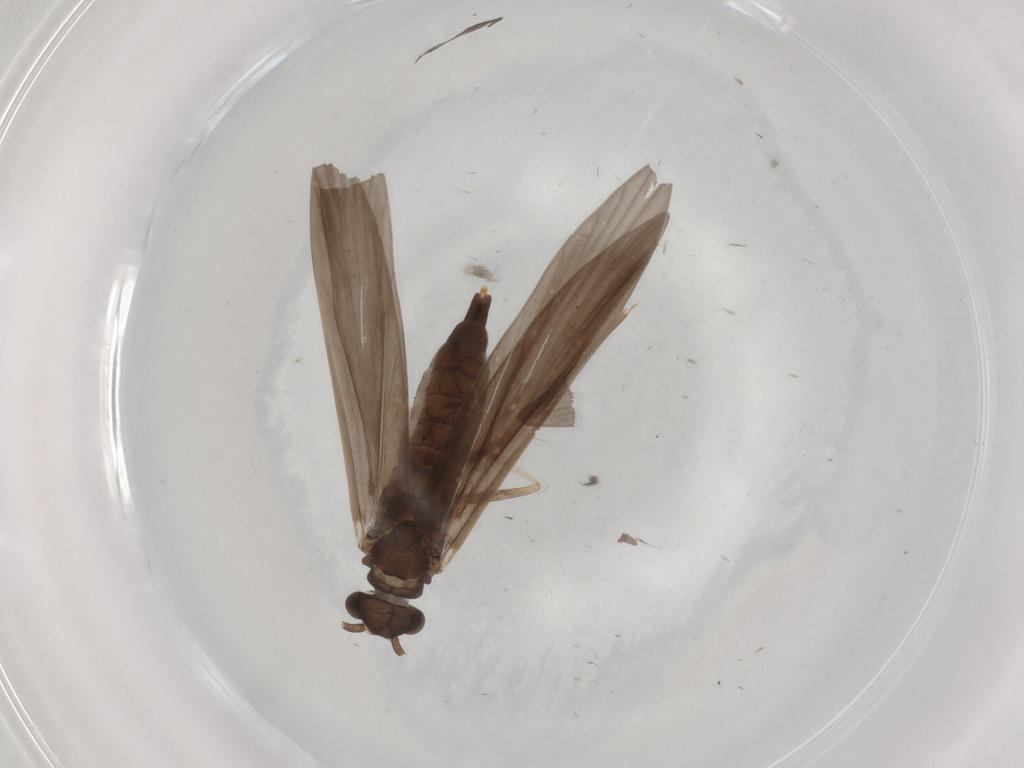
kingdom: Animalia
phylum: Arthropoda
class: Insecta
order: Trichoptera
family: Xiphocentronidae
